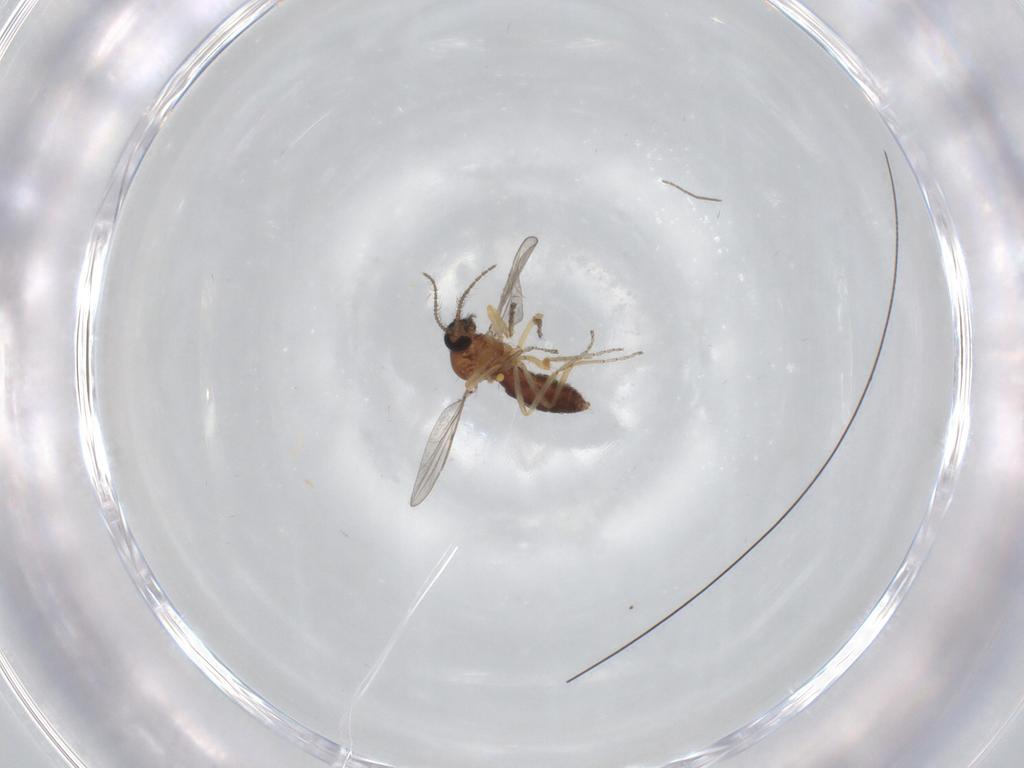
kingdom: Animalia
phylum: Arthropoda
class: Insecta
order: Diptera
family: Ceratopogonidae
